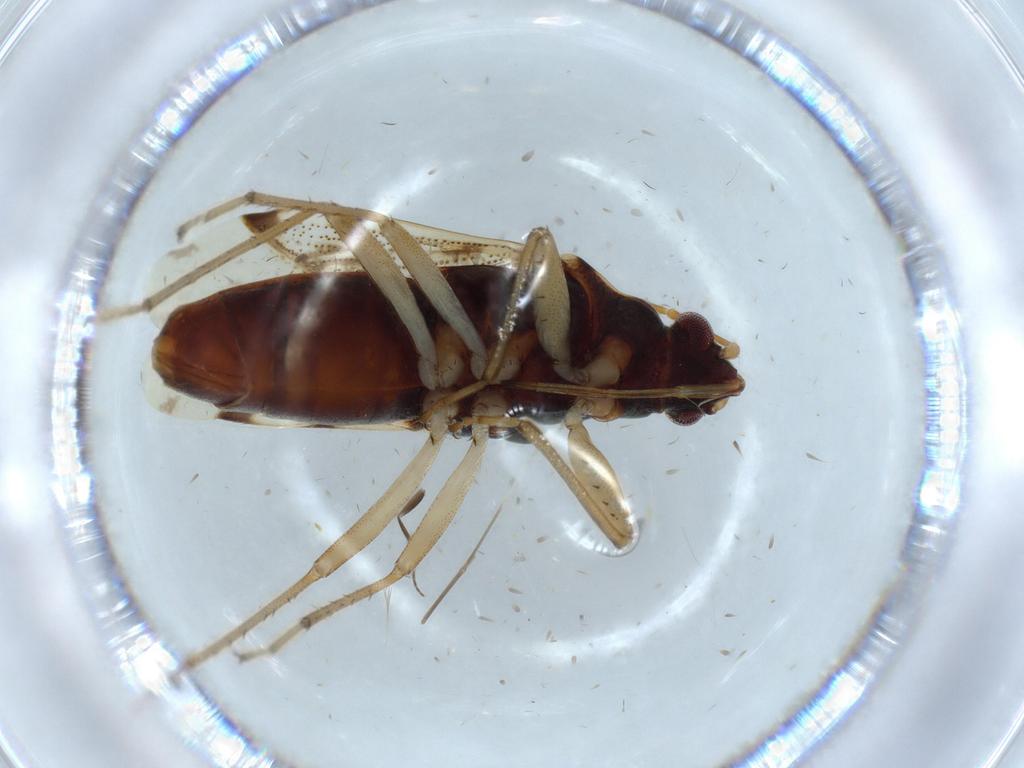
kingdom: Animalia
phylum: Arthropoda
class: Insecta
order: Hemiptera
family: Rhyparochromidae
